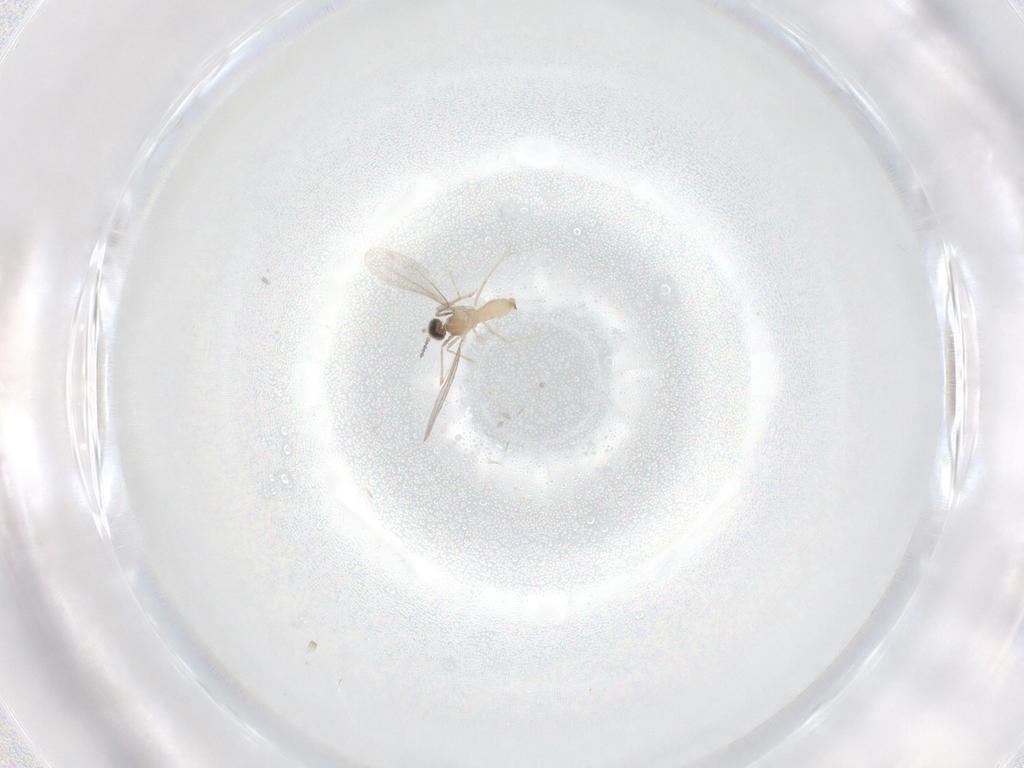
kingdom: Animalia
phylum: Arthropoda
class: Insecta
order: Diptera
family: Cecidomyiidae
